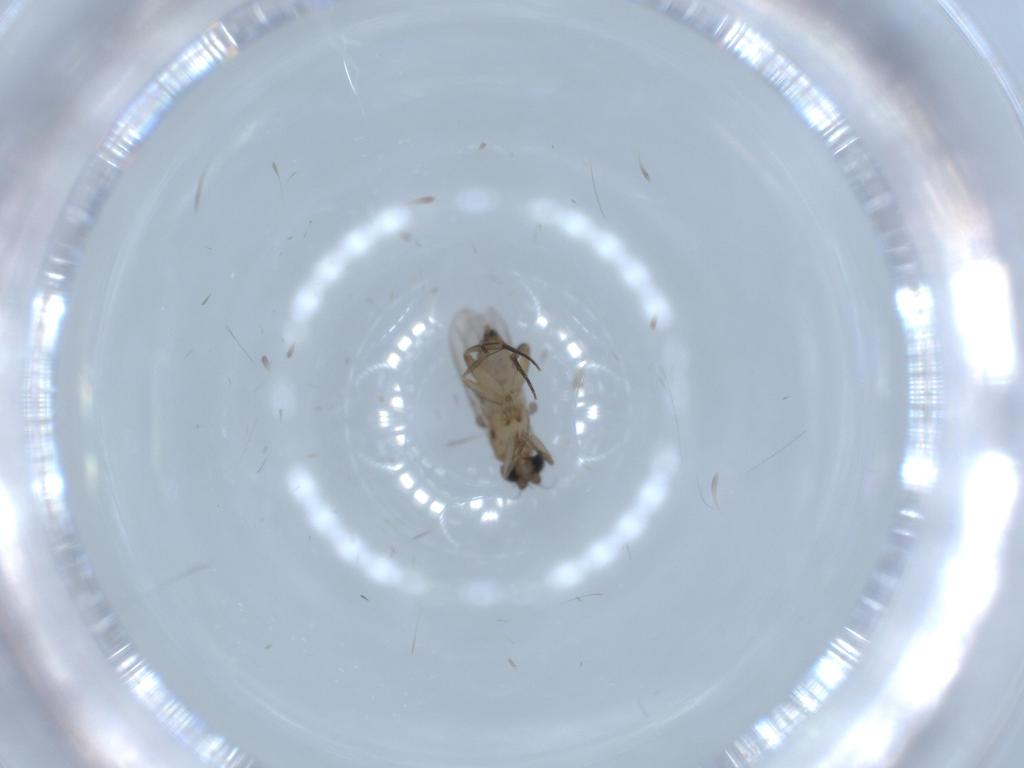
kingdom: Animalia
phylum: Arthropoda
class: Insecta
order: Diptera
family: Phoridae
